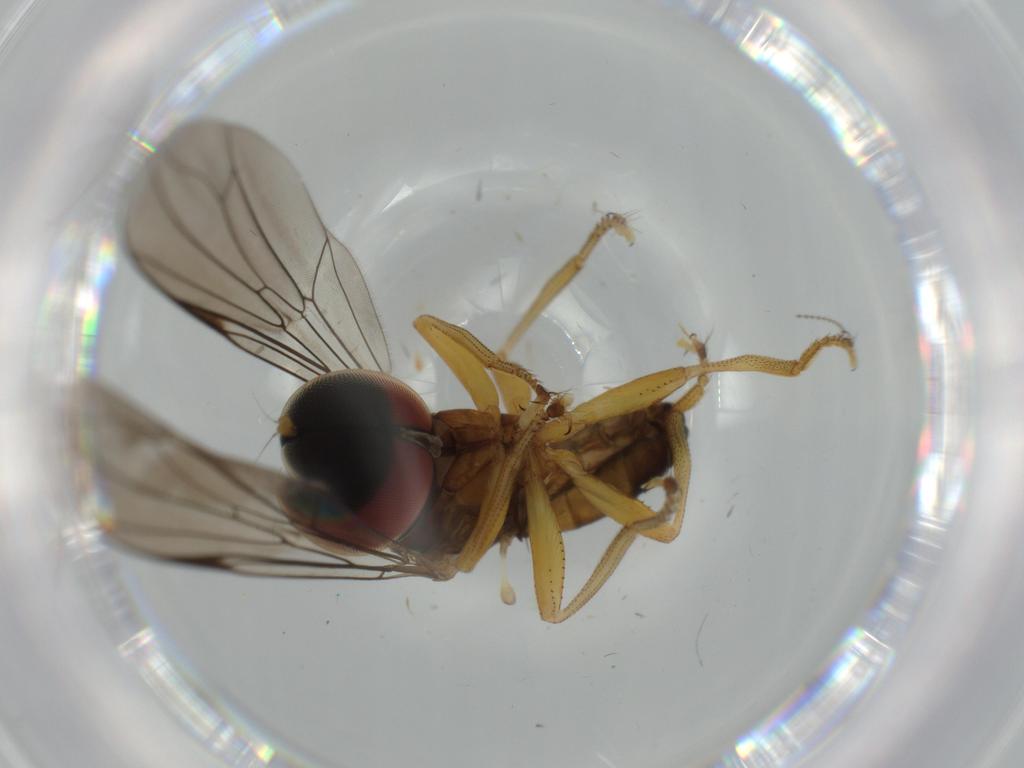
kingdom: Animalia
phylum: Arthropoda
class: Insecta
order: Diptera
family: Pipunculidae
